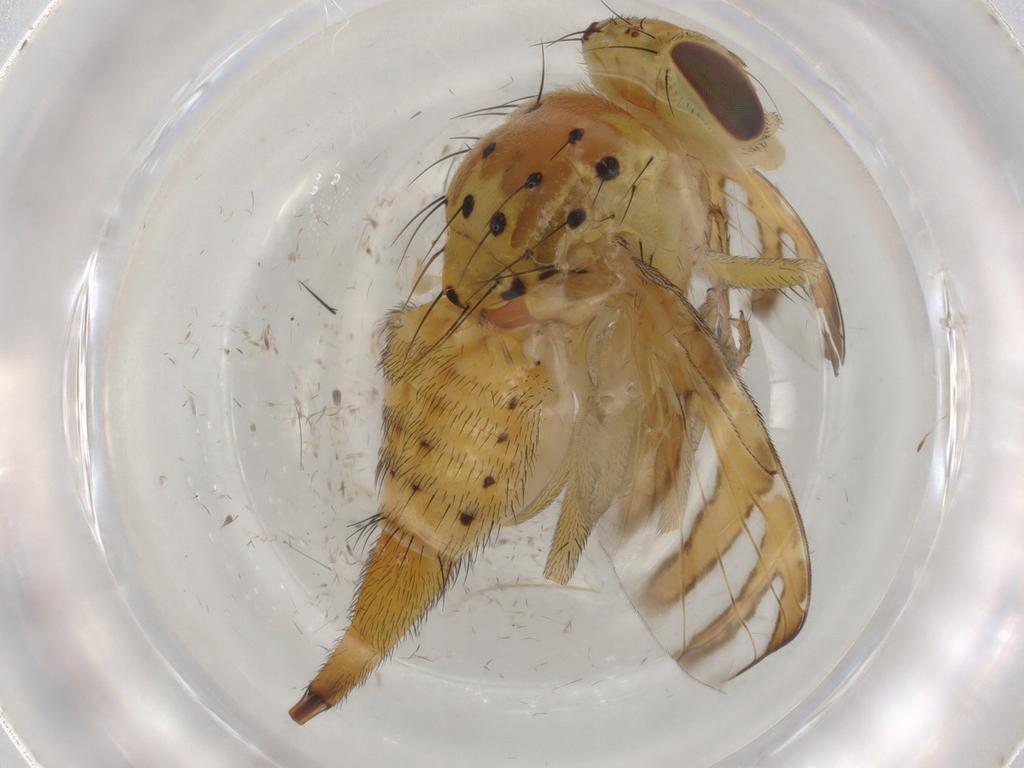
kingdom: Animalia
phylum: Arthropoda
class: Insecta
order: Diptera
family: Tephritidae
